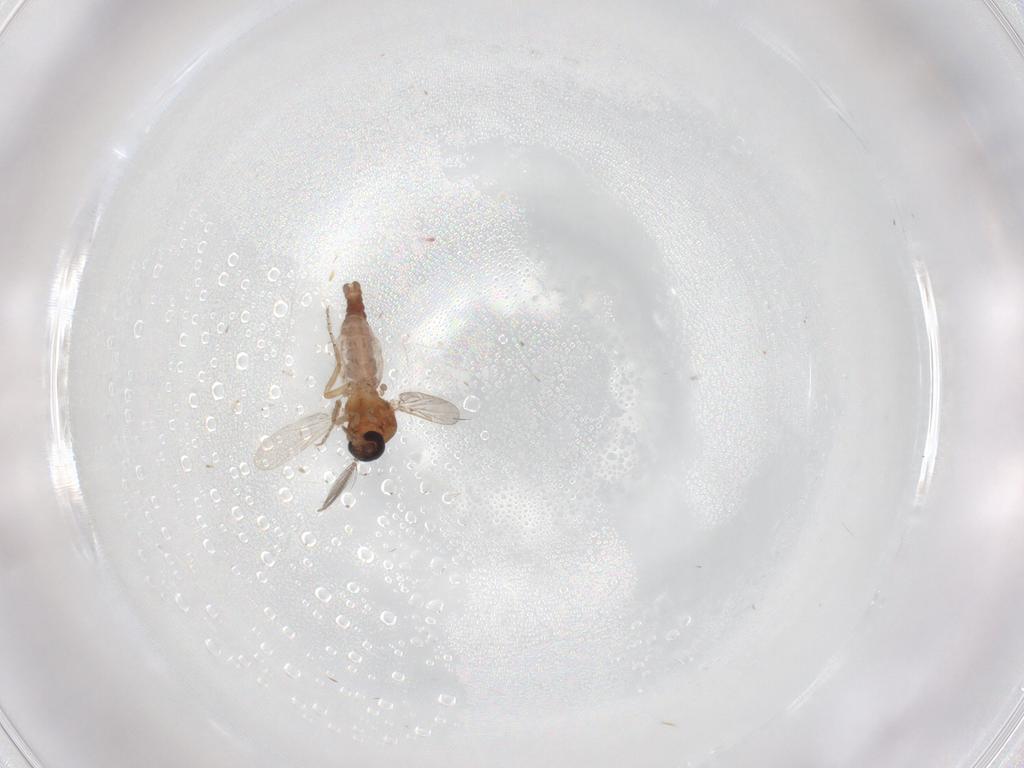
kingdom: Animalia
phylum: Arthropoda
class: Insecta
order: Diptera
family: Ceratopogonidae
